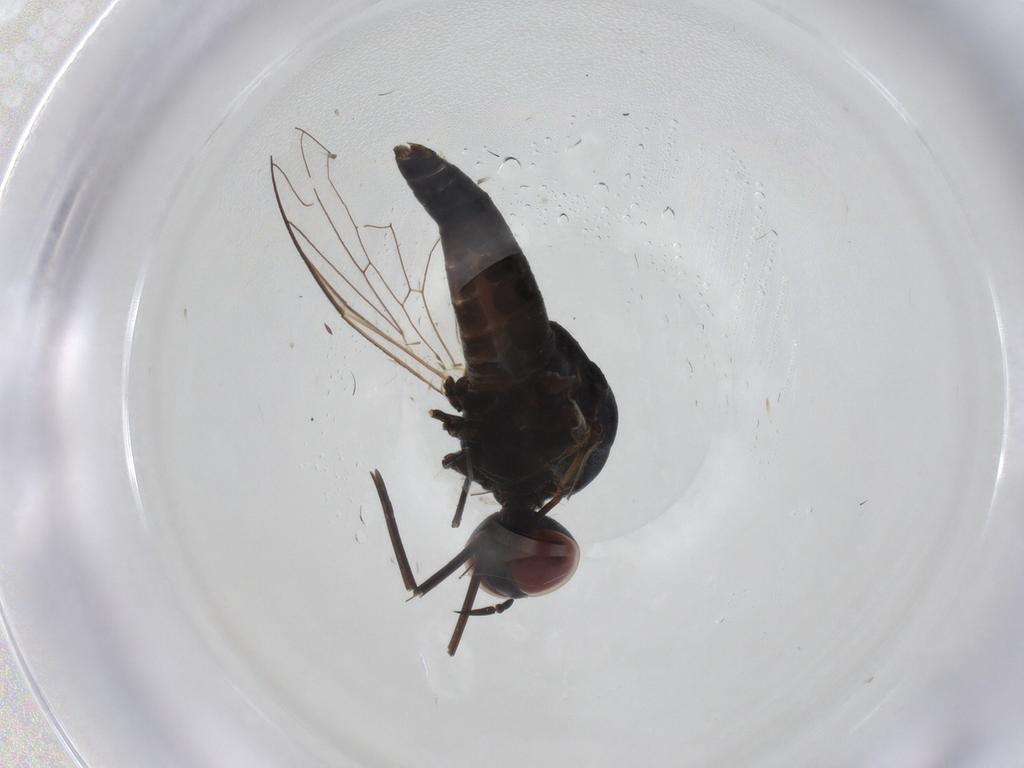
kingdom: Animalia
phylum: Arthropoda
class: Insecta
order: Diptera
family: Bombyliidae
